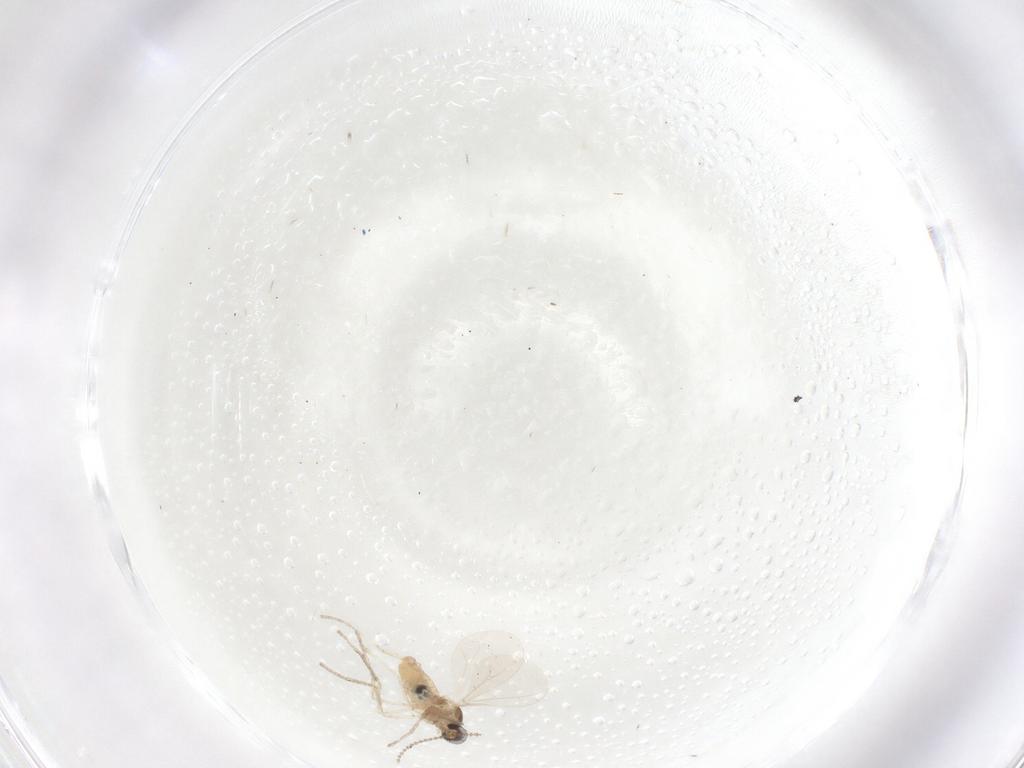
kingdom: Animalia
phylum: Arthropoda
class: Insecta
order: Diptera
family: Cecidomyiidae
